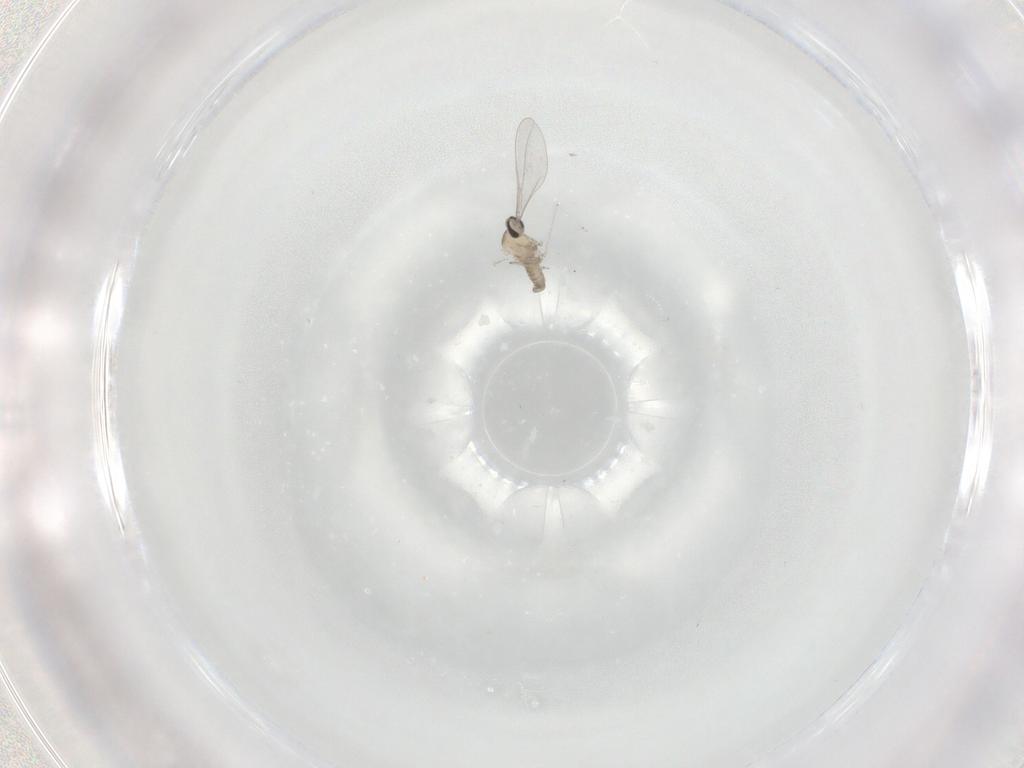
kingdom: Animalia
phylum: Arthropoda
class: Insecta
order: Diptera
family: Cecidomyiidae
